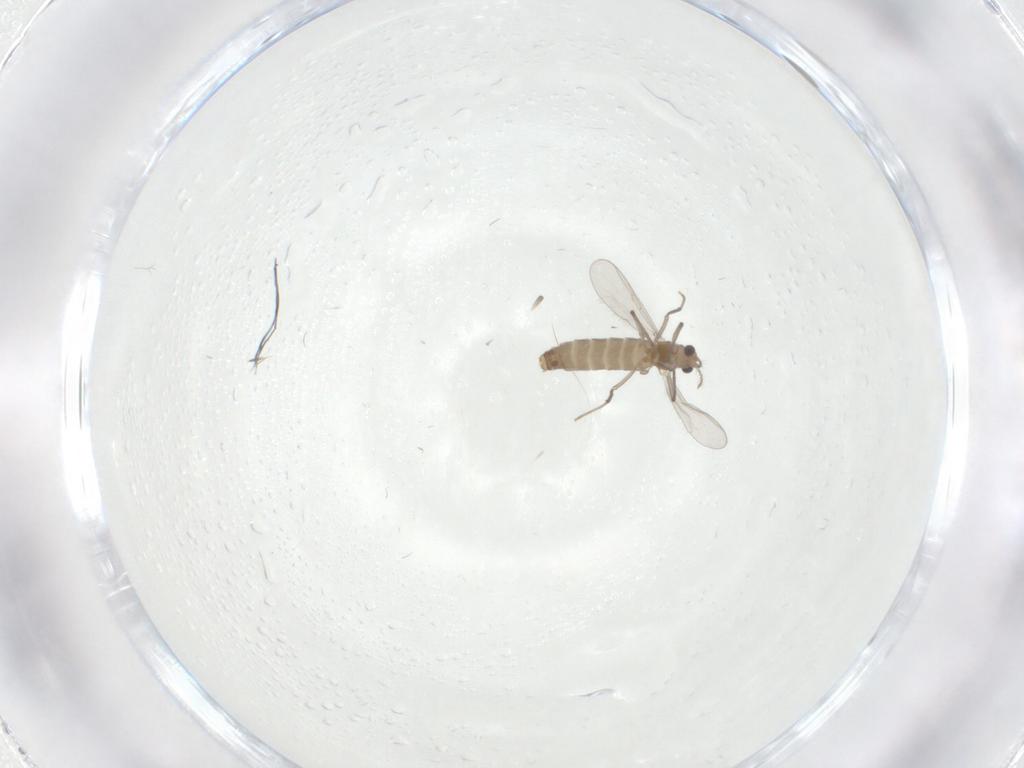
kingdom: Animalia
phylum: Arthropoda
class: Insecta
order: Diptera
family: Chironomidae
